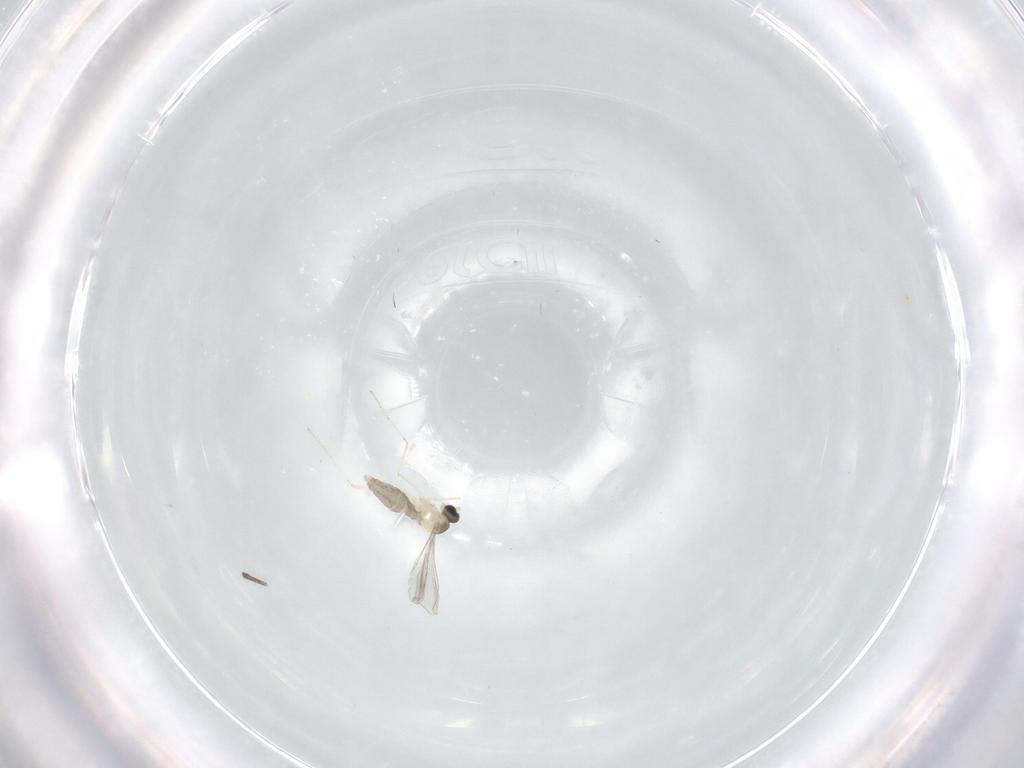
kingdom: Animalia
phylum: Arthropoda
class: Insecta
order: Diptera
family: Cecidomyiidae
